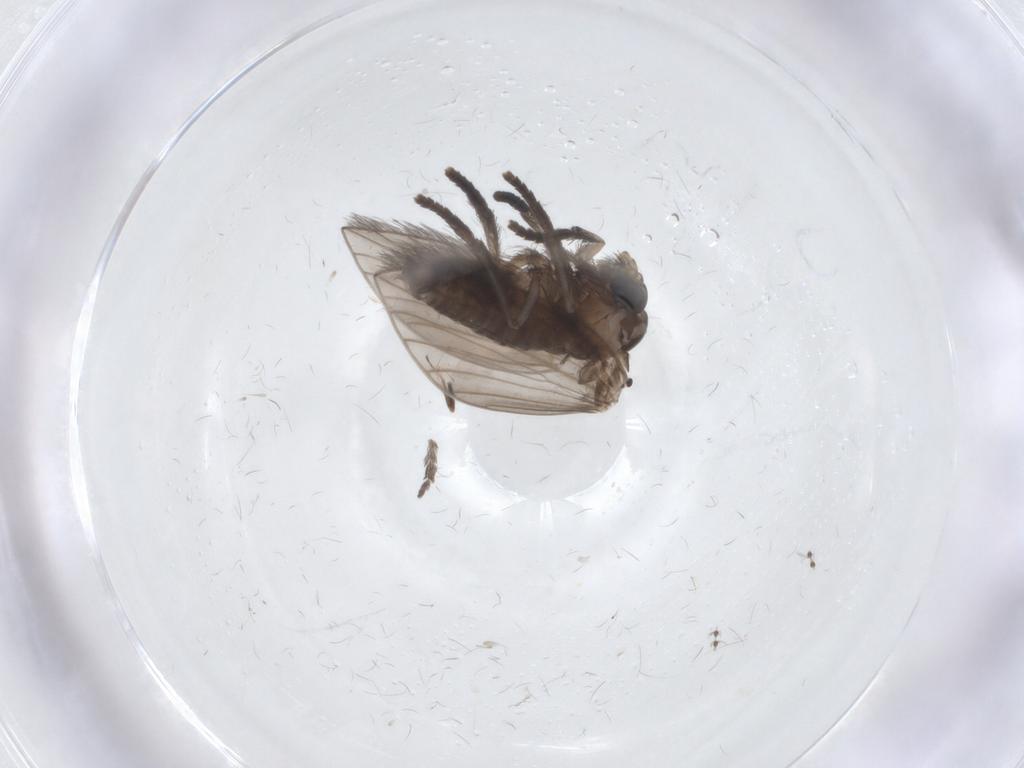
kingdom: Animalia
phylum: Arthropoda
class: Insecta
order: Diptera
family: Psychodidae
